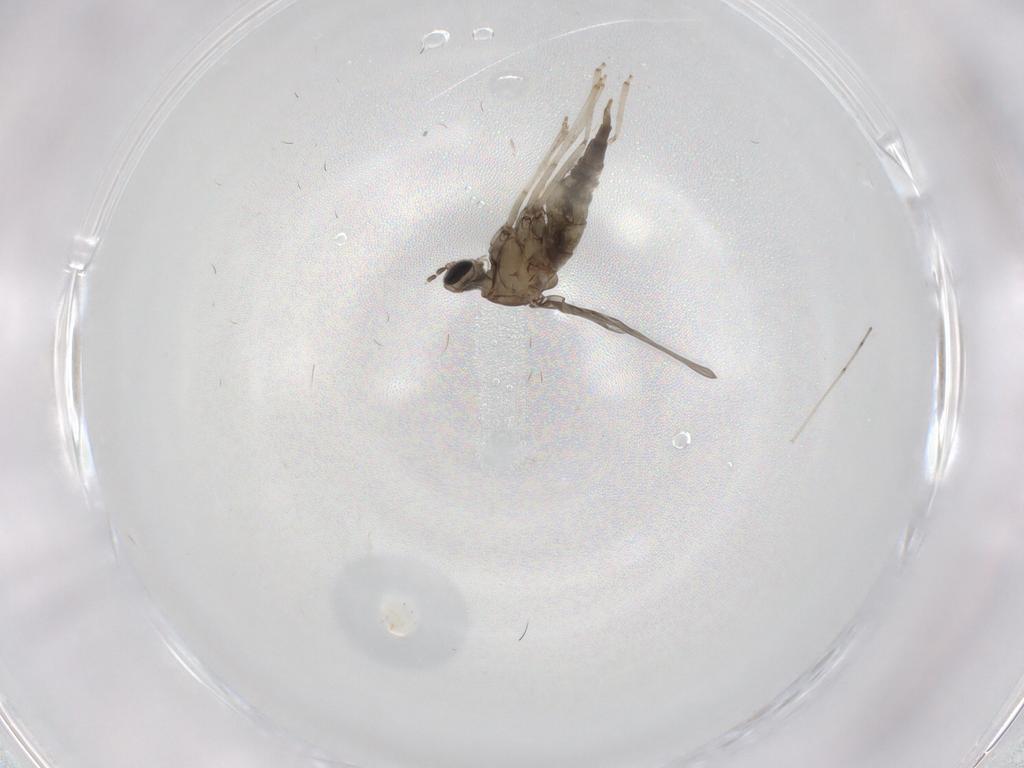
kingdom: Animalia
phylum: Arthropoda
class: Insecta
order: Diptera
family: Cecidomyiidae
